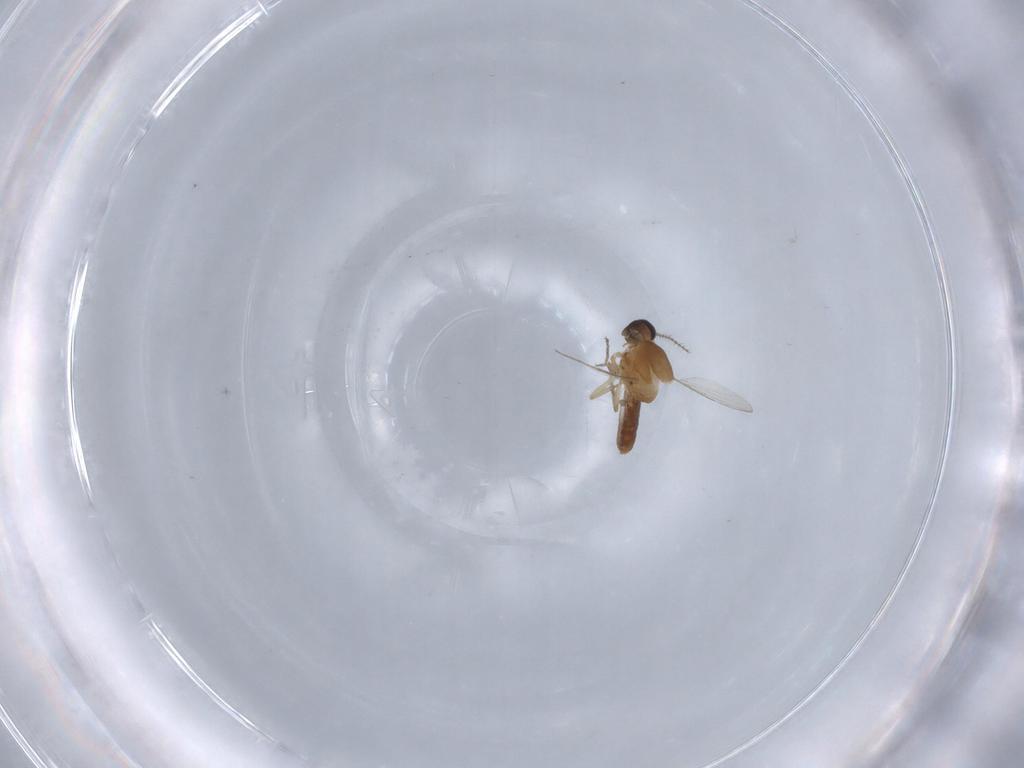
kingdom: Animalia
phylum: Arthropoda
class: Insecta
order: Diptera
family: Ceratopogonidae
